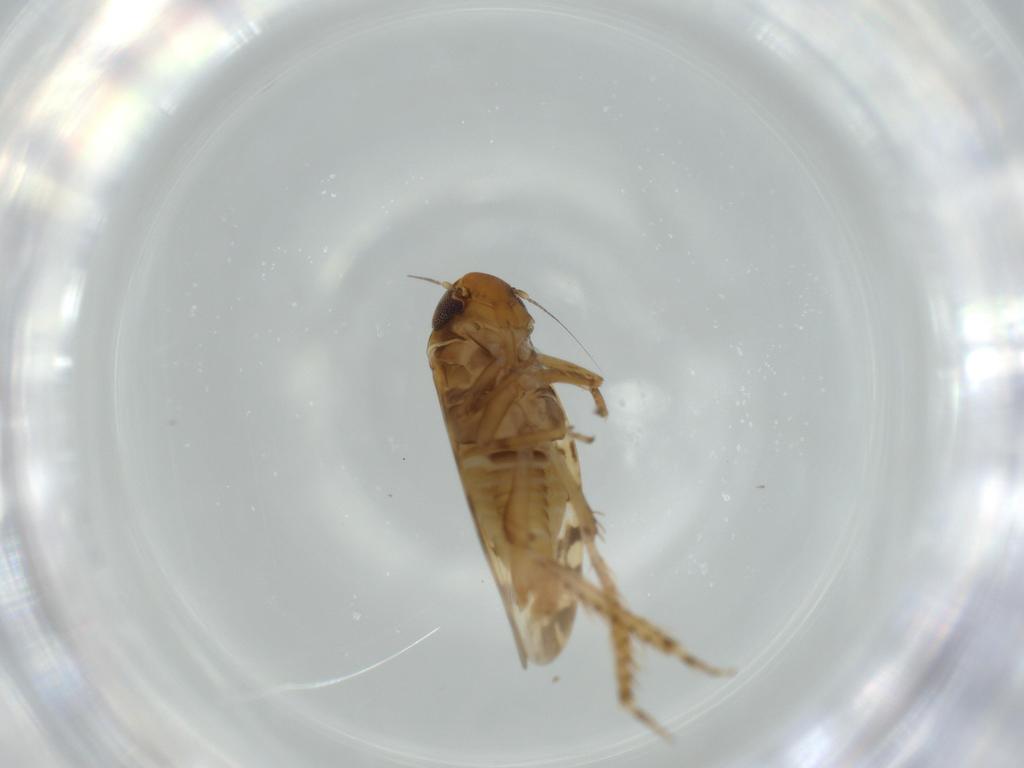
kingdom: Animalia
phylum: Arthropoda
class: Insecta
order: Hemiptera
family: Cicadellidae
